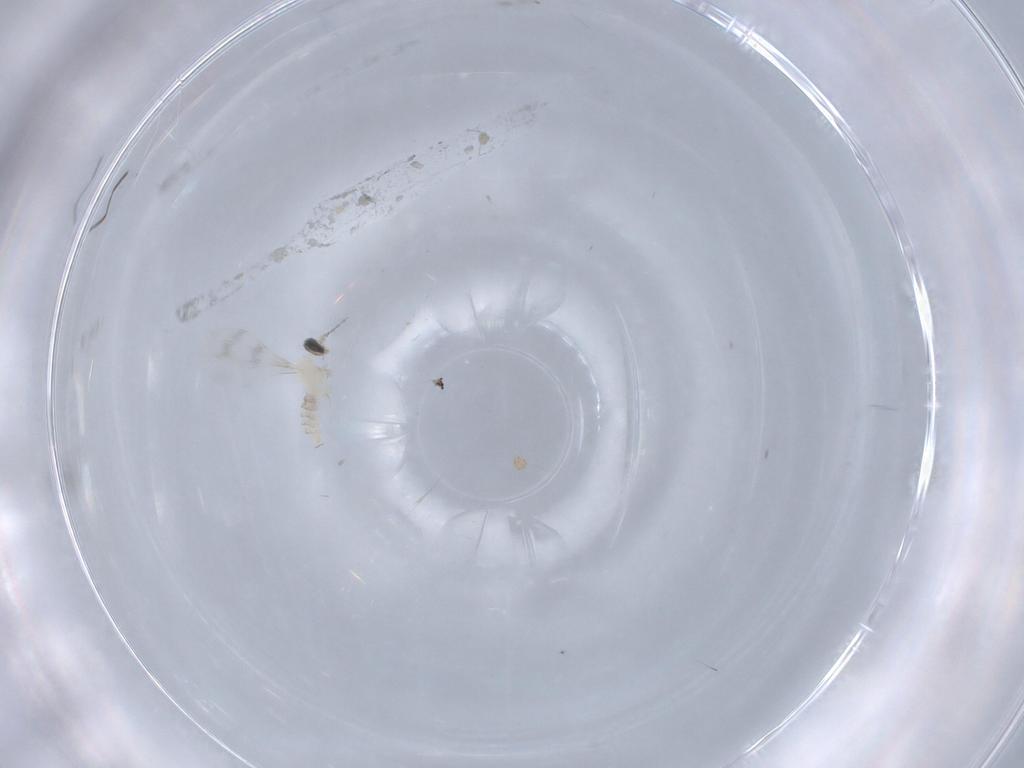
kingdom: Animalia
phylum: Arthropoda
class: Insecta
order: Diptera
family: Cecidomyiidae
